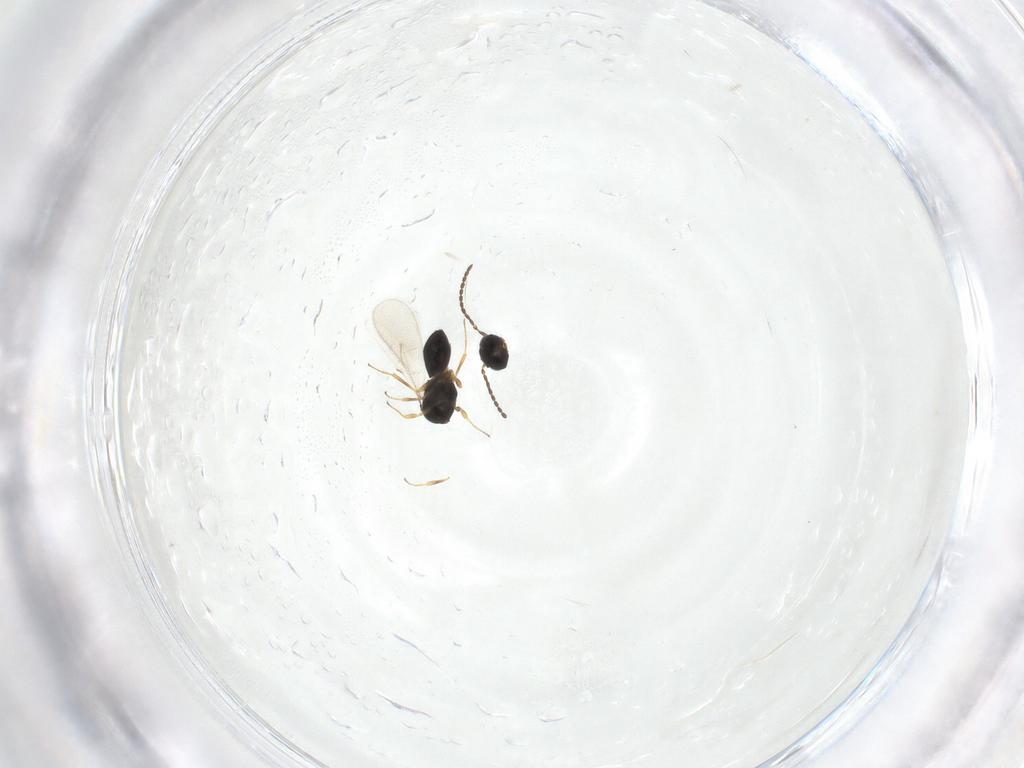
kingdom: Animalia
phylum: Arthropoda
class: Insecta
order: Hymenoptera
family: Scelionidae
